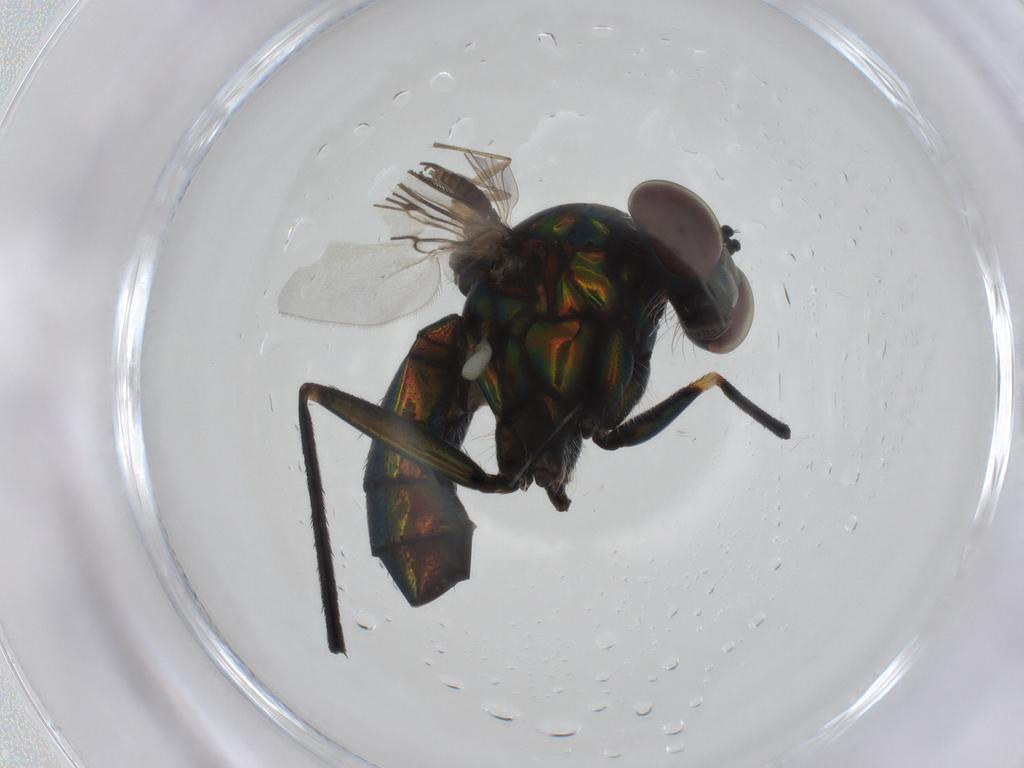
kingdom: Animalia
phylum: Arthropoda
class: Insecta
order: Diptera
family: Dolichopodidae
